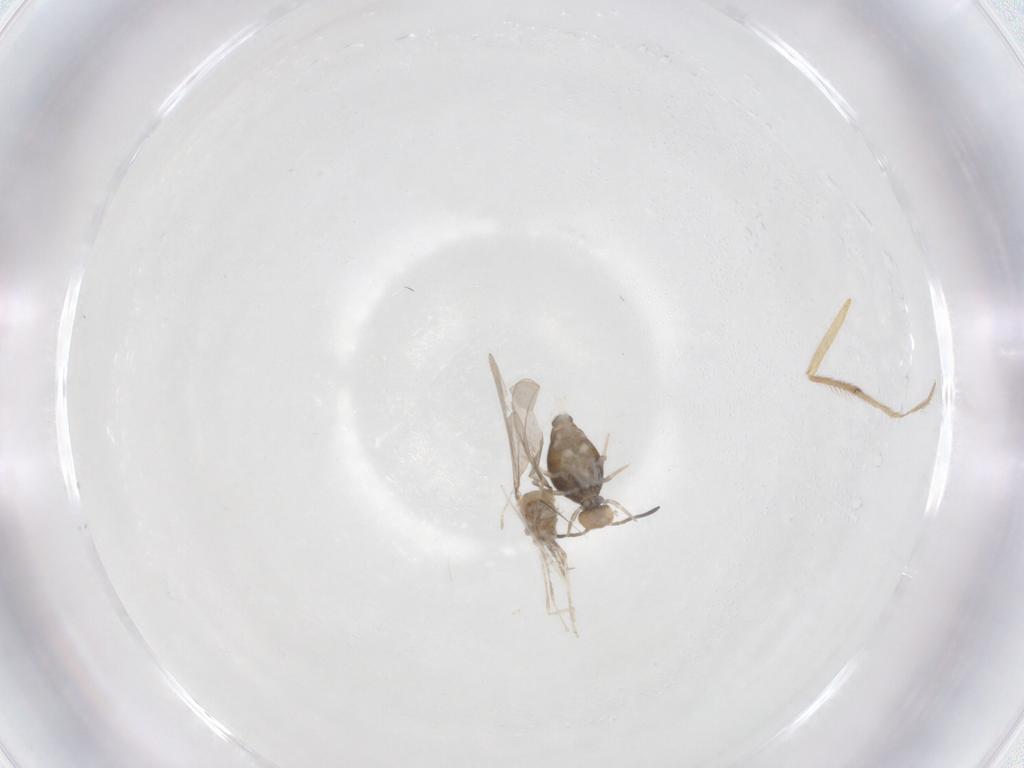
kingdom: Animalia
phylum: Arthropoda
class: Insecta
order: Diptera
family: Cecidomyiidae
